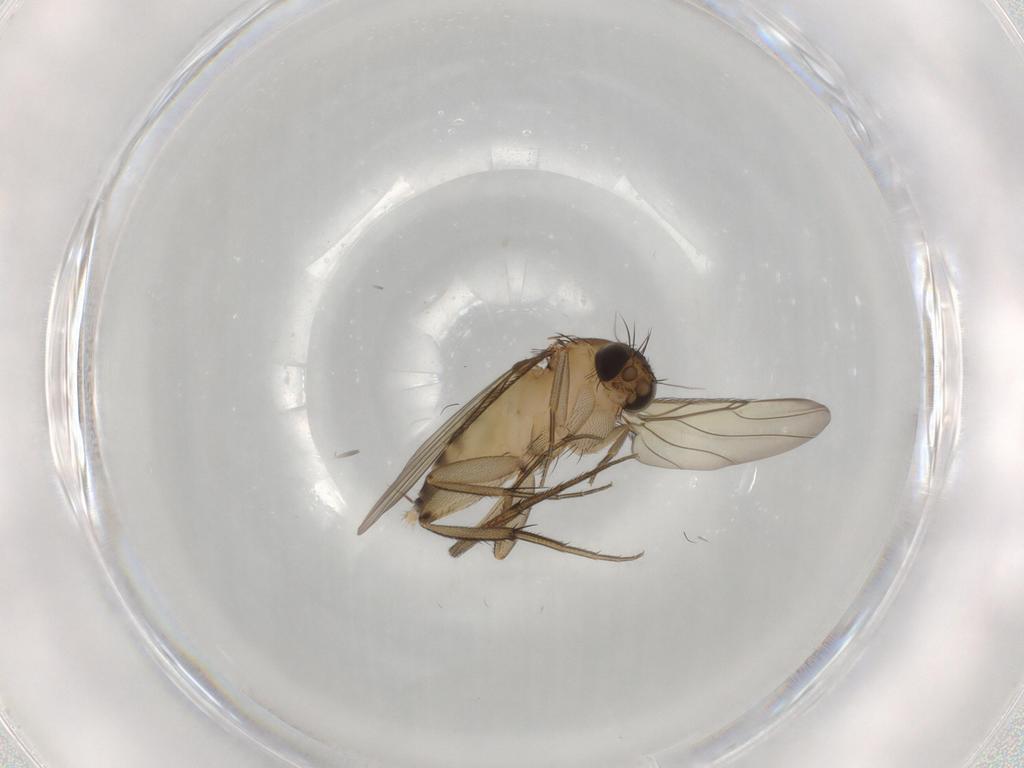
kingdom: Animalia
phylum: Arthropoda
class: Insecta
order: Diptera
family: Phoridae
